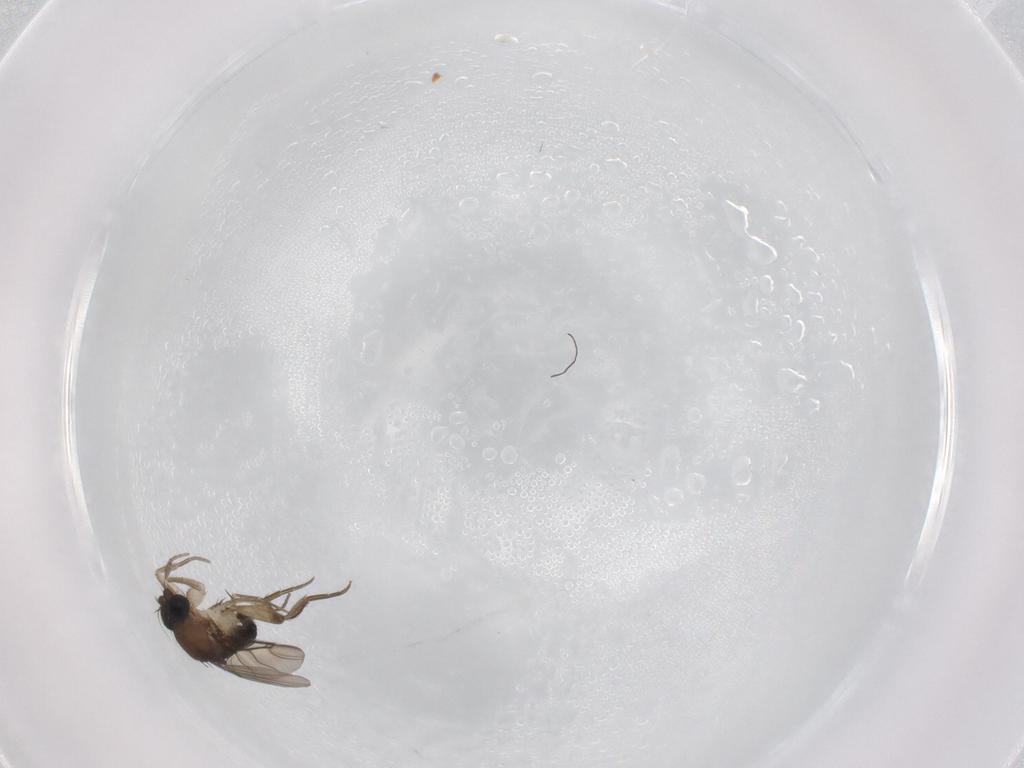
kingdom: Animalia
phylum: Arthropoda
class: Insecta
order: Diptera
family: Phoridae
